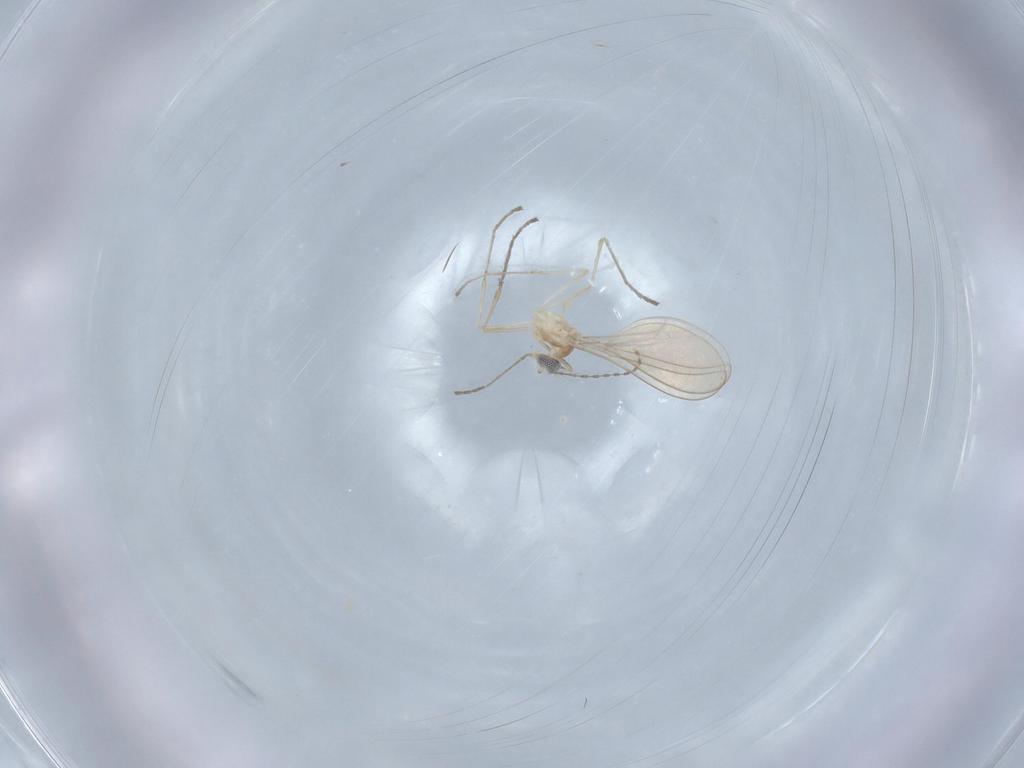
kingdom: Animalia
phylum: Arthropoda
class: Insecta
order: Diptera
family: Cecidomyiidae
